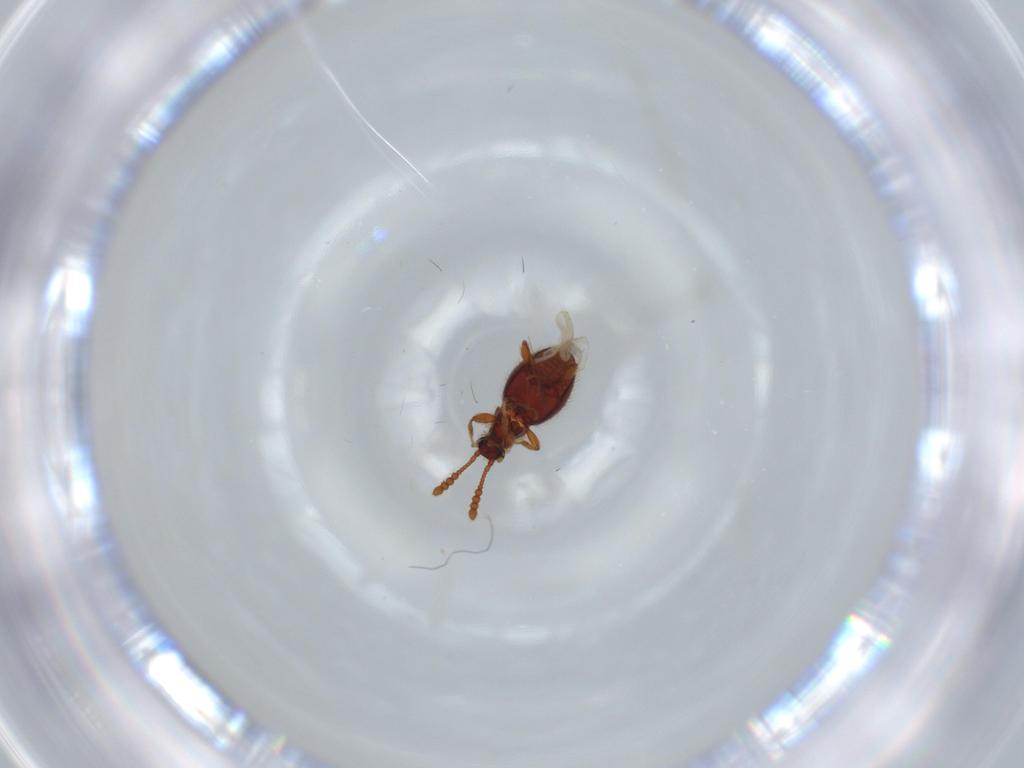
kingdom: Animalia
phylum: Arthropoda
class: Insecta
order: Coleoptera
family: Staphylinidae
